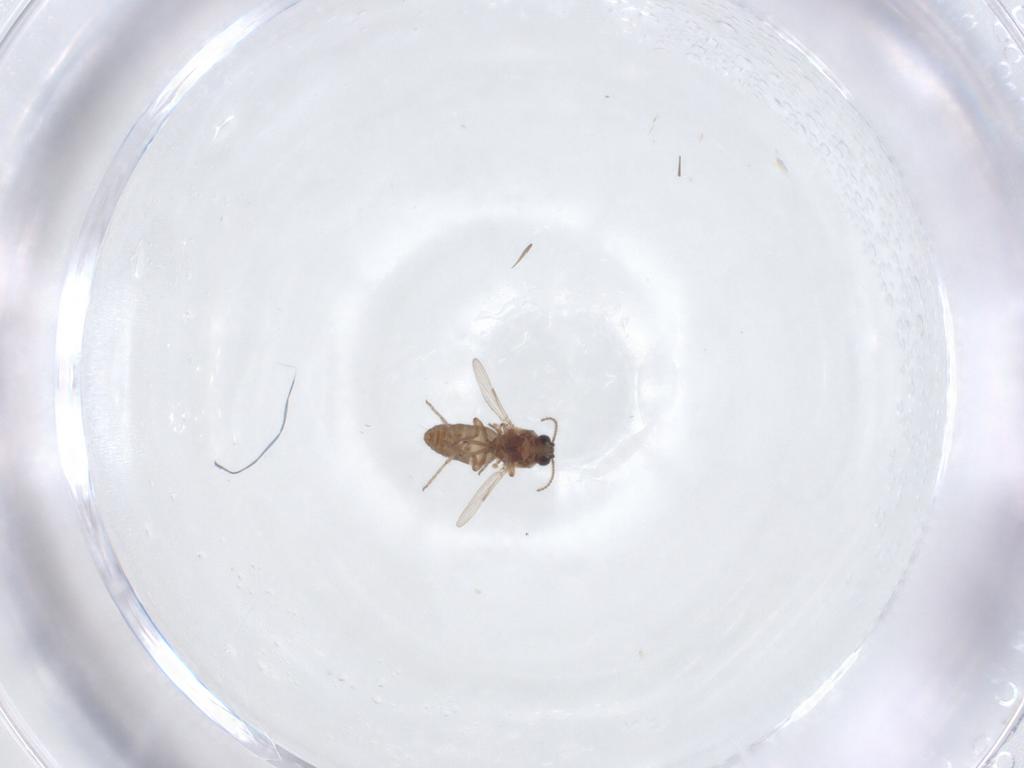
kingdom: Animalia
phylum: Arthropoda
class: Insecta
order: Diptera
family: Ceratopogonidae
